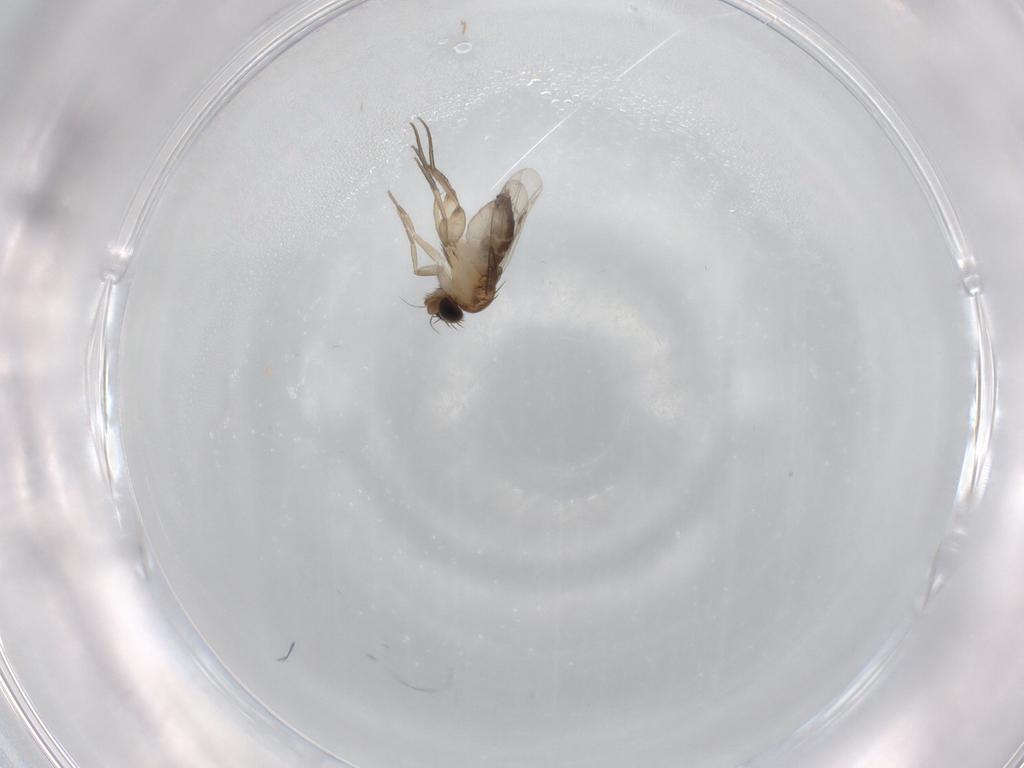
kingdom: Animalia
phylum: Arthropoda
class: Insecta
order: Diptera
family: Phoridae
